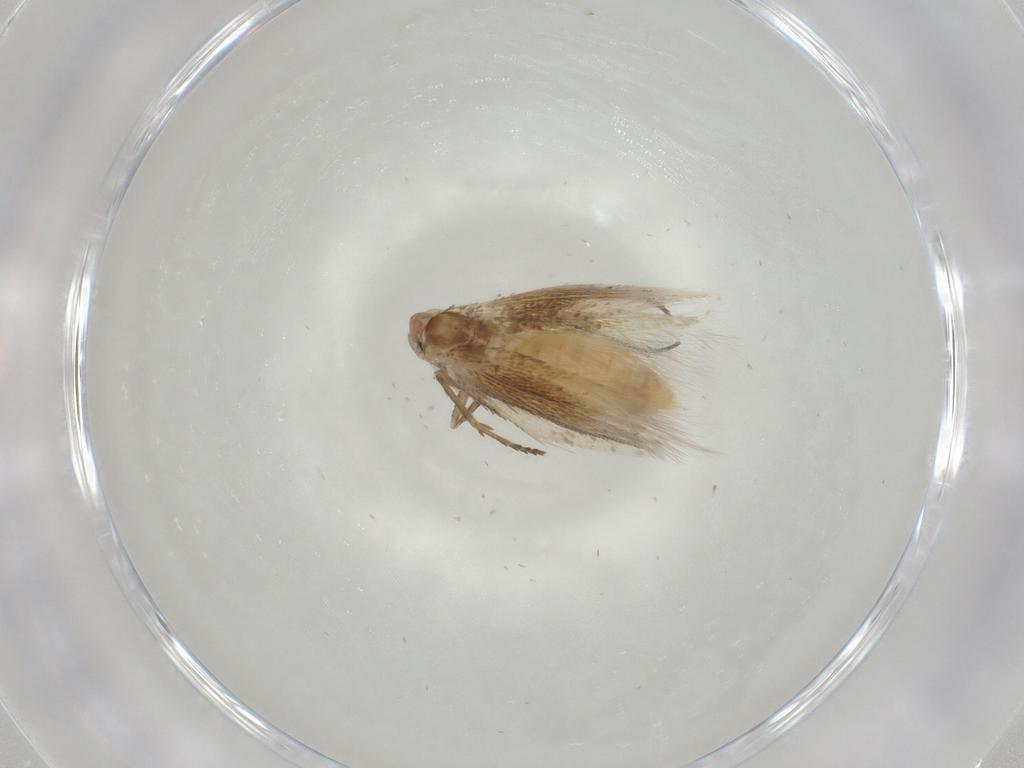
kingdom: Animalia
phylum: Arthropoda
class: Insecta
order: Lepidoptera
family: Bucculatricidae
